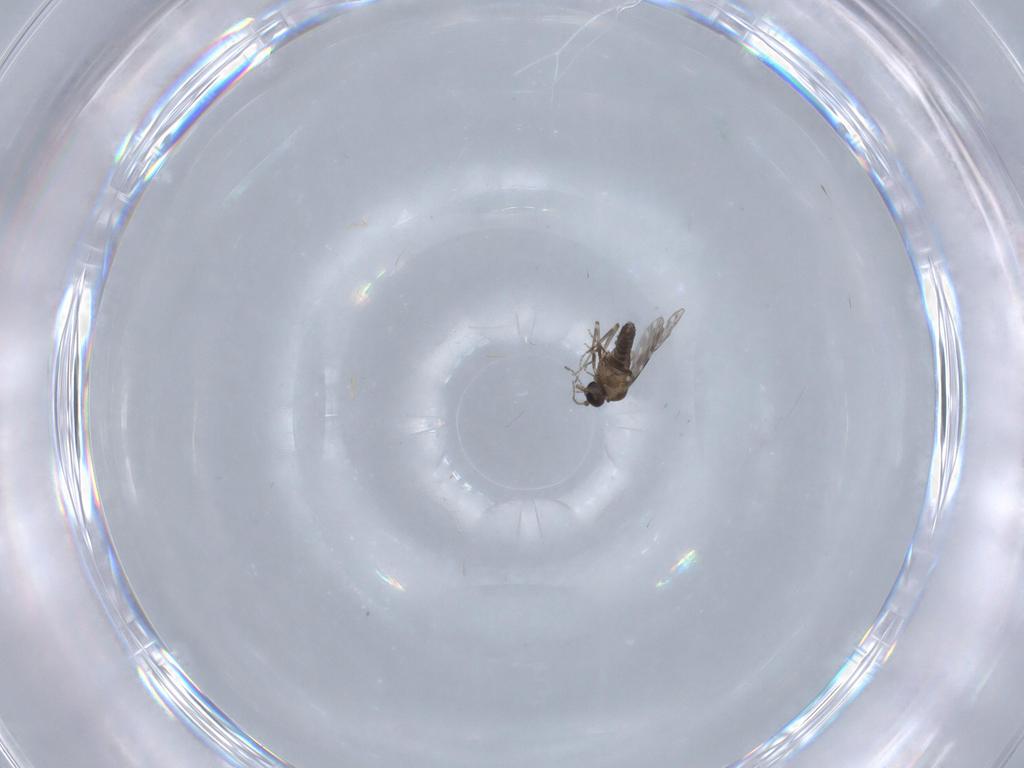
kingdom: Animalia
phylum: Arthropoda
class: Insecta
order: Diptera
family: Ceratopogonidae
